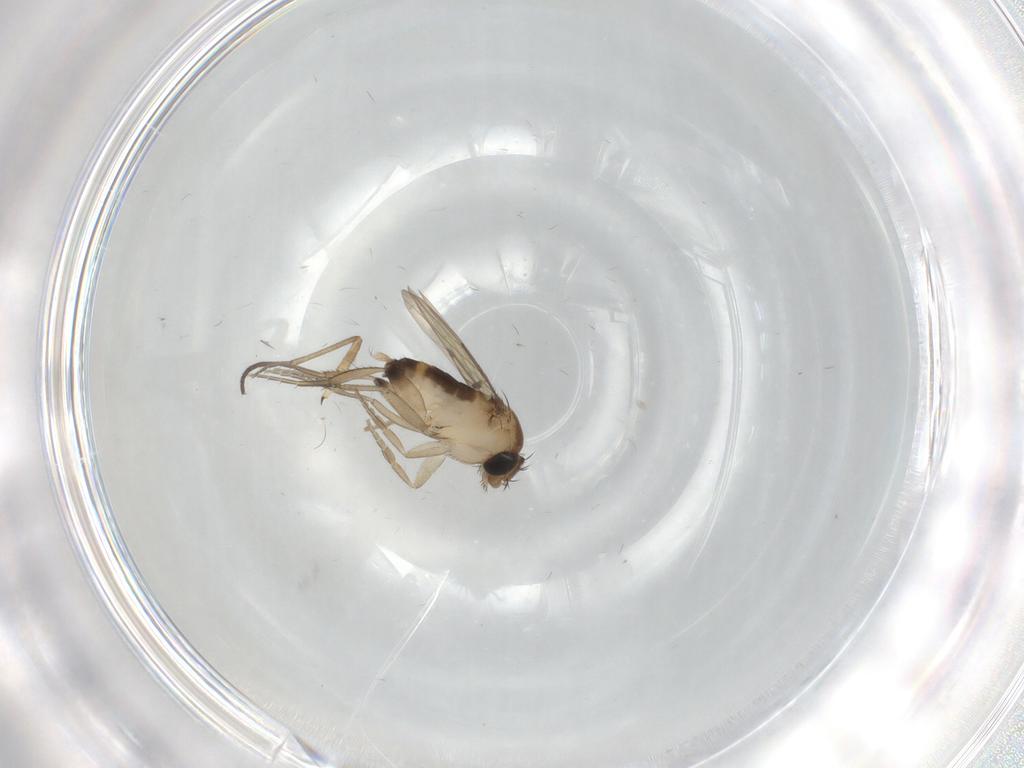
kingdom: Animalia
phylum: Arthropoda
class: Insecta
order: Diptera
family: Psychodidae
